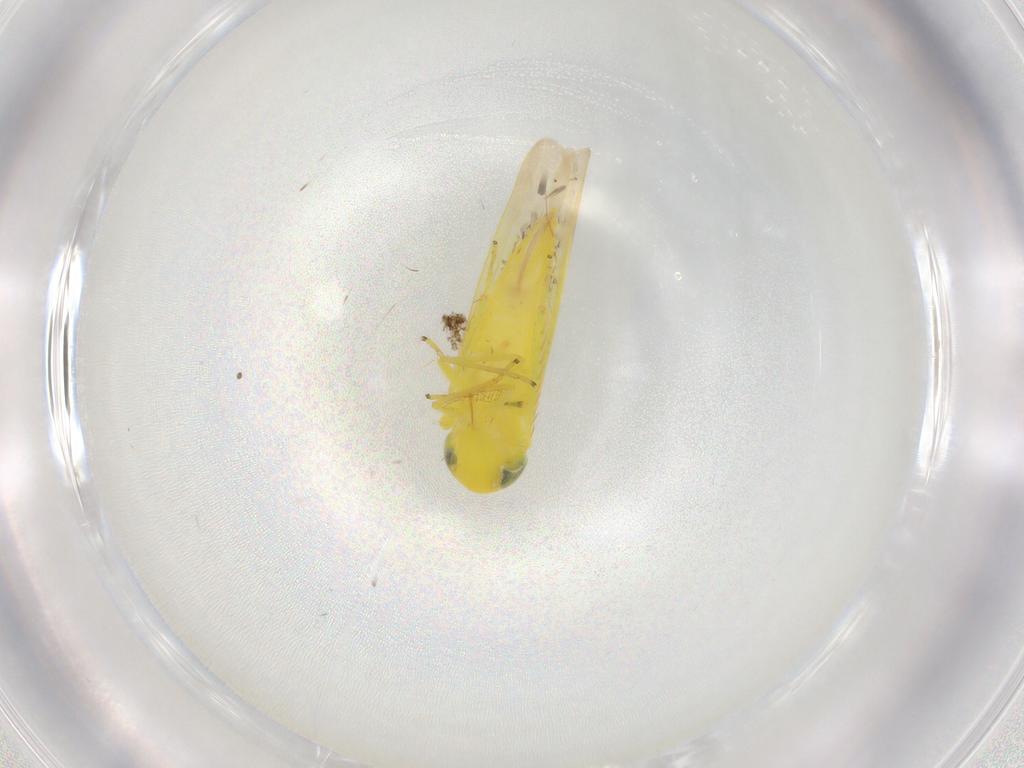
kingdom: Animalia
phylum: Arthropoda
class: Insecta
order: Hemiptera
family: Cicadellidae
